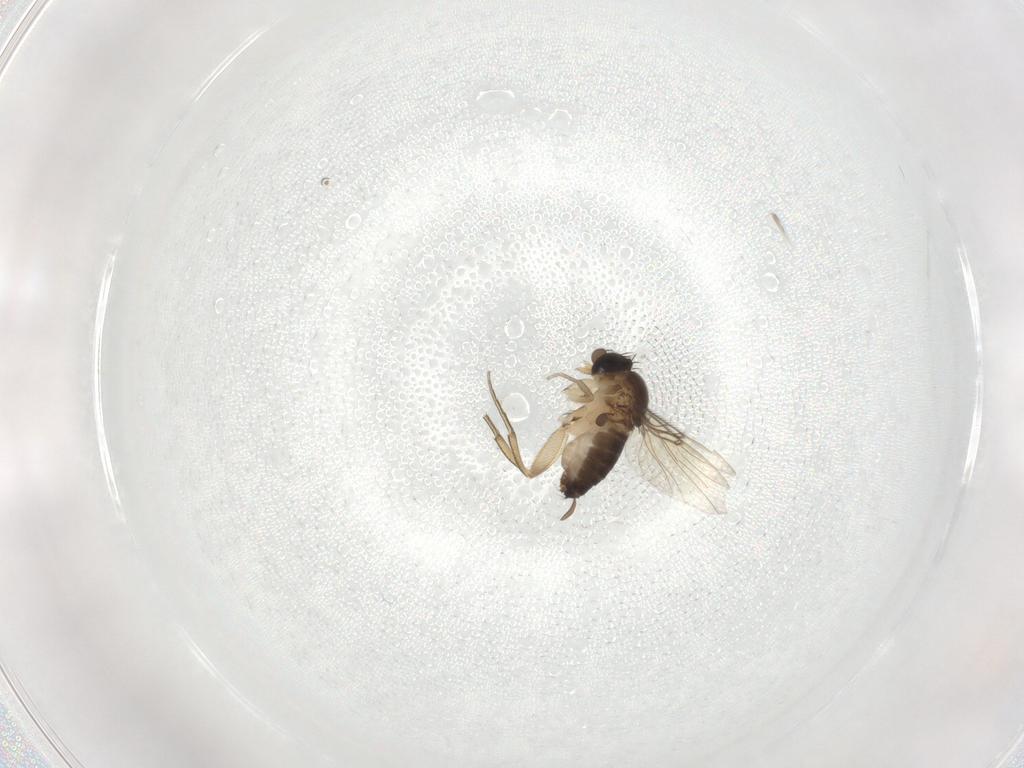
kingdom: Animalia
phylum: Arthropoda
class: Insecta
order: Diptera
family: Limoniidae
